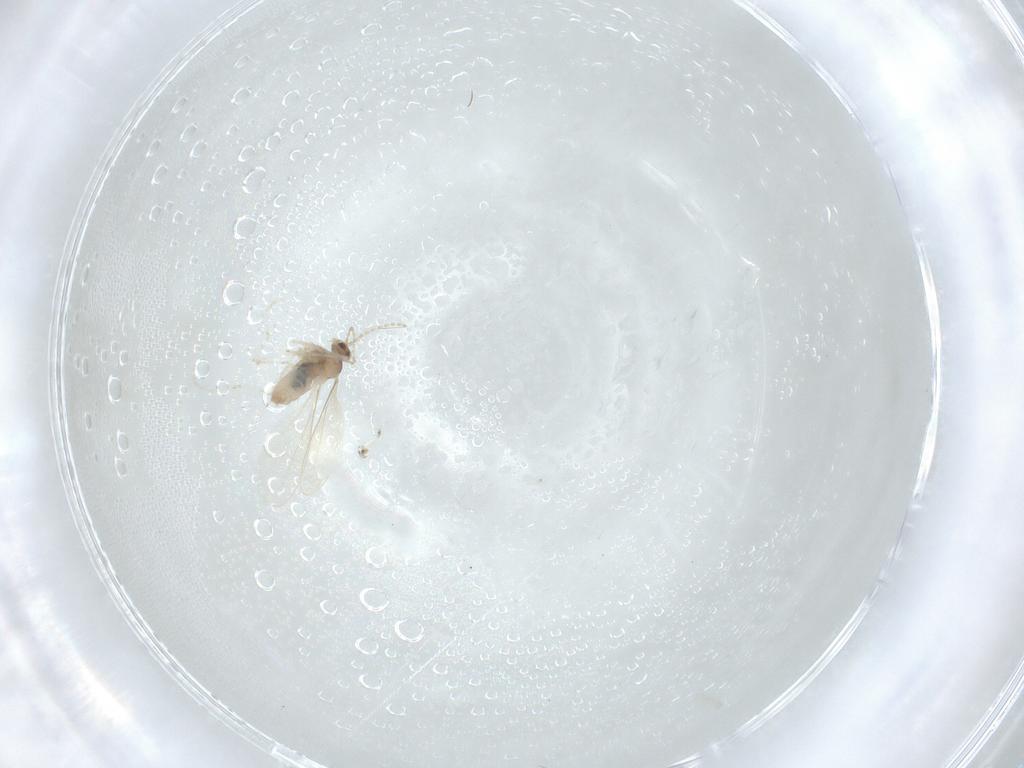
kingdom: Animalia
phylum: Arthropoda
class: Insecta
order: Diptera
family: Cecidomyiidae
